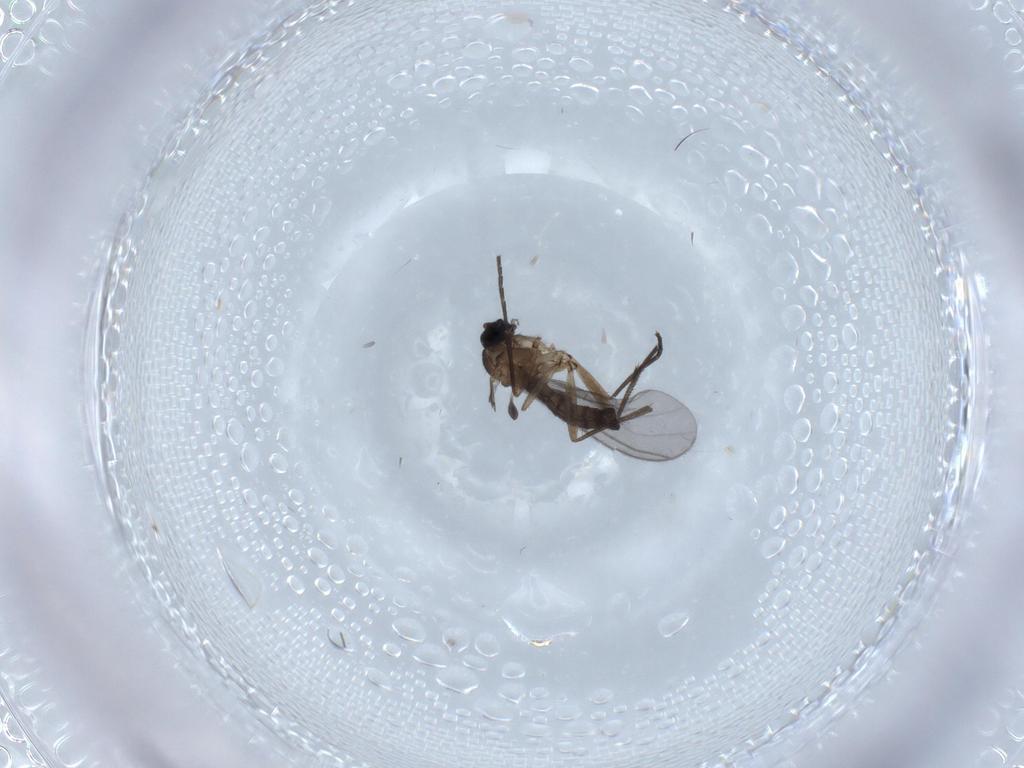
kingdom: Animalia
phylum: Arthropoda
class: Insecta
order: Diptera
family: Sciaridae
